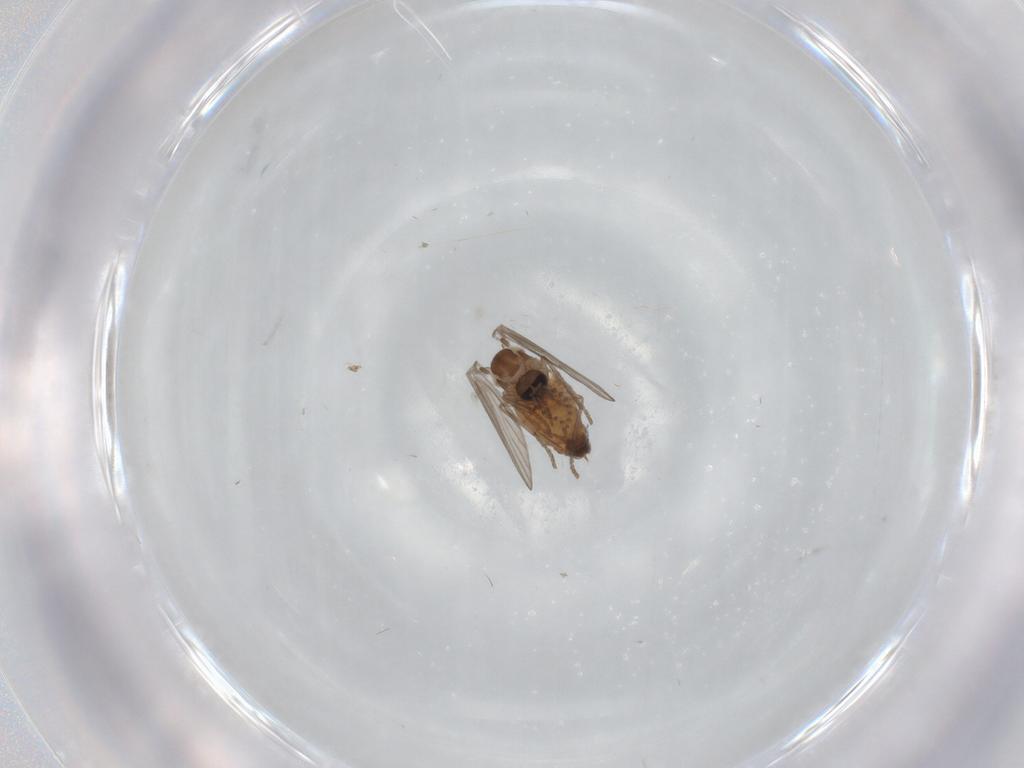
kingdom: Animalia
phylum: Arthropoda
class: Insecta
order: Diptera
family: Psychodidae
